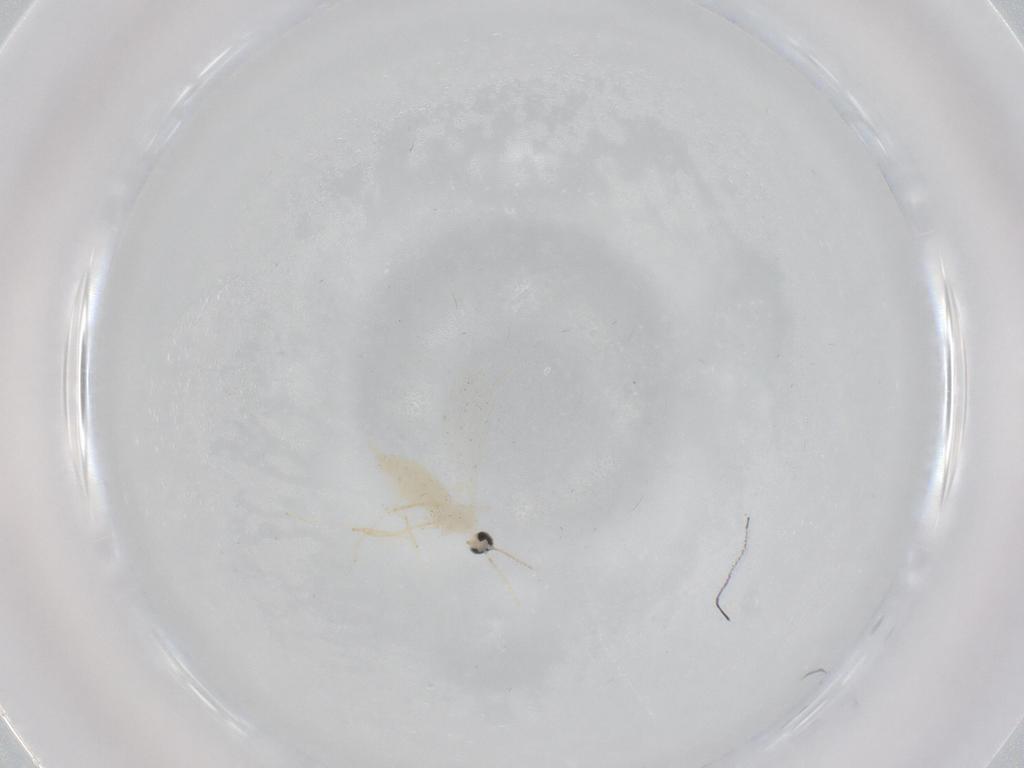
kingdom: Animalia
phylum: Arthropoda
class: Insecta
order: Diptera
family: Cecidomyiidae
